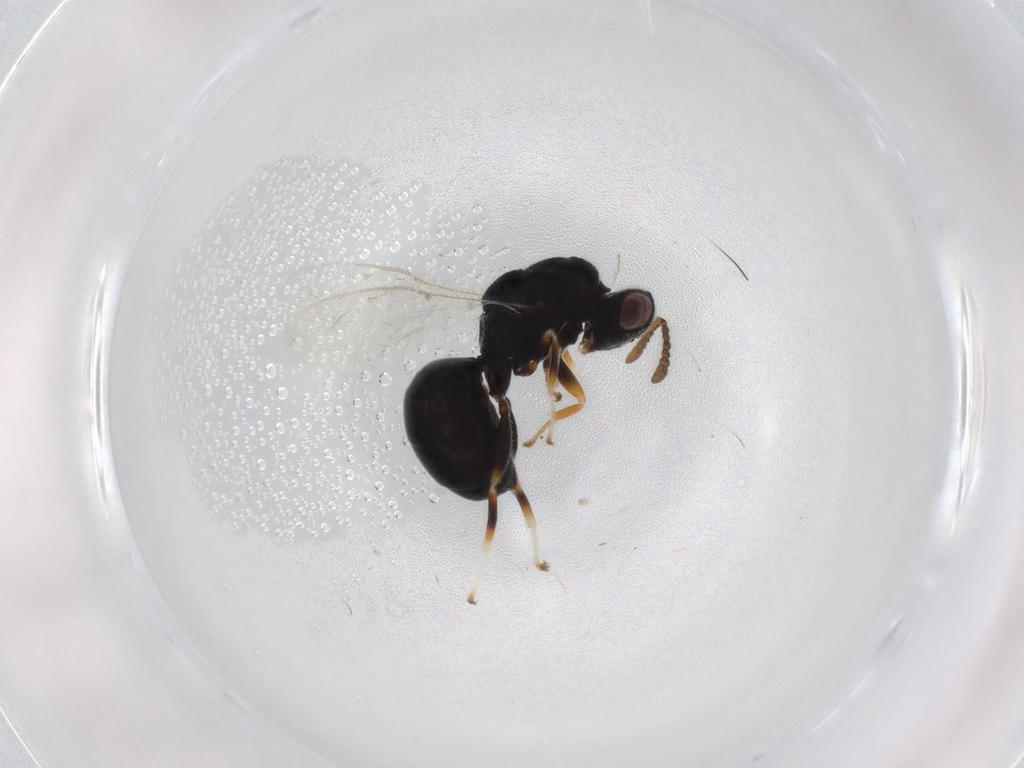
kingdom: Animalia
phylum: Arthropoda
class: Insecta
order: Hymenoptera
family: Eurytomidae
